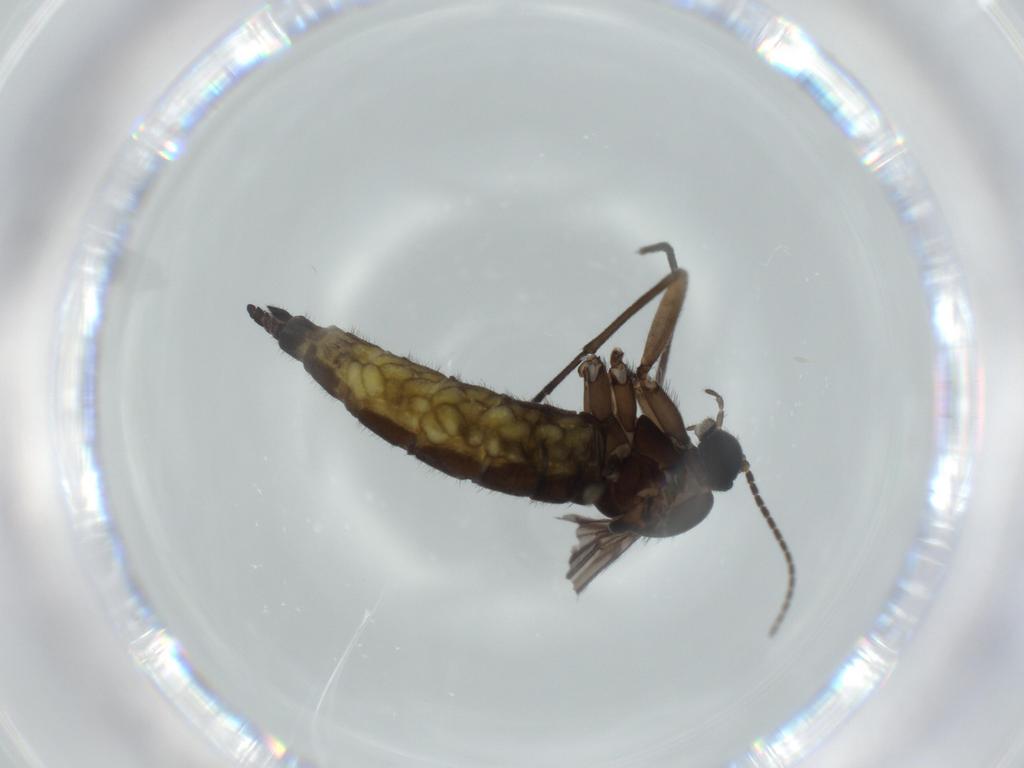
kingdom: Animalia
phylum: Arthropoda
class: Insecta
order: Diptera
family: Sciaridae
